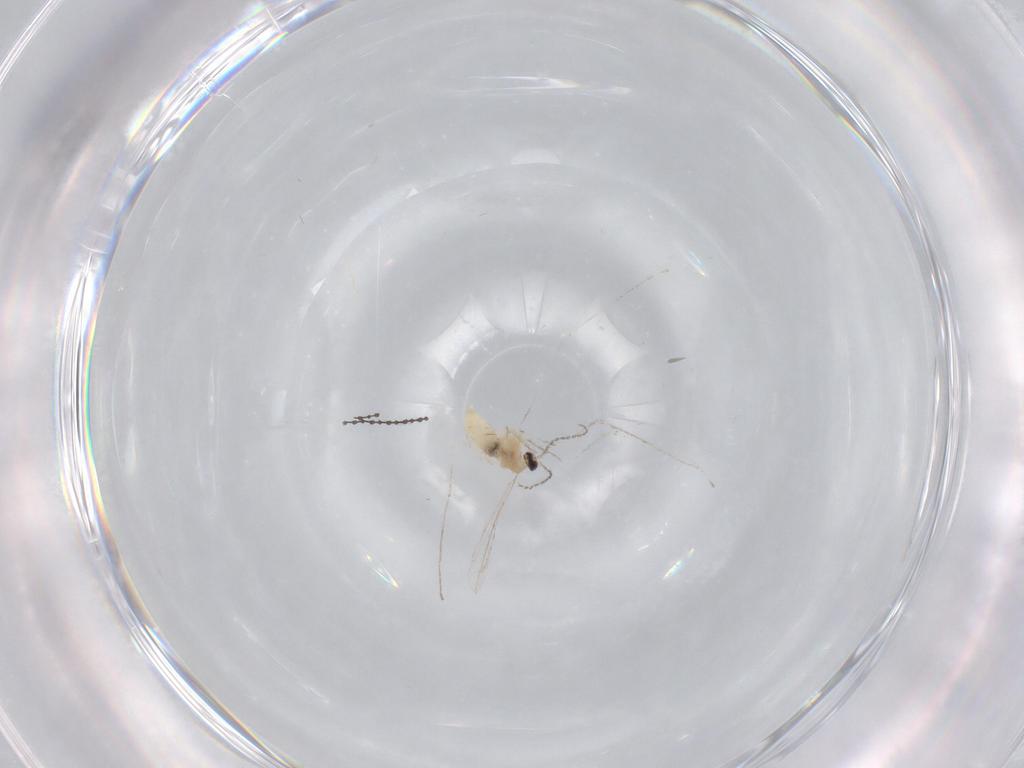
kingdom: Animalia
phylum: Arthropoda
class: Insecta
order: Diptera
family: Cecidomyiidae
